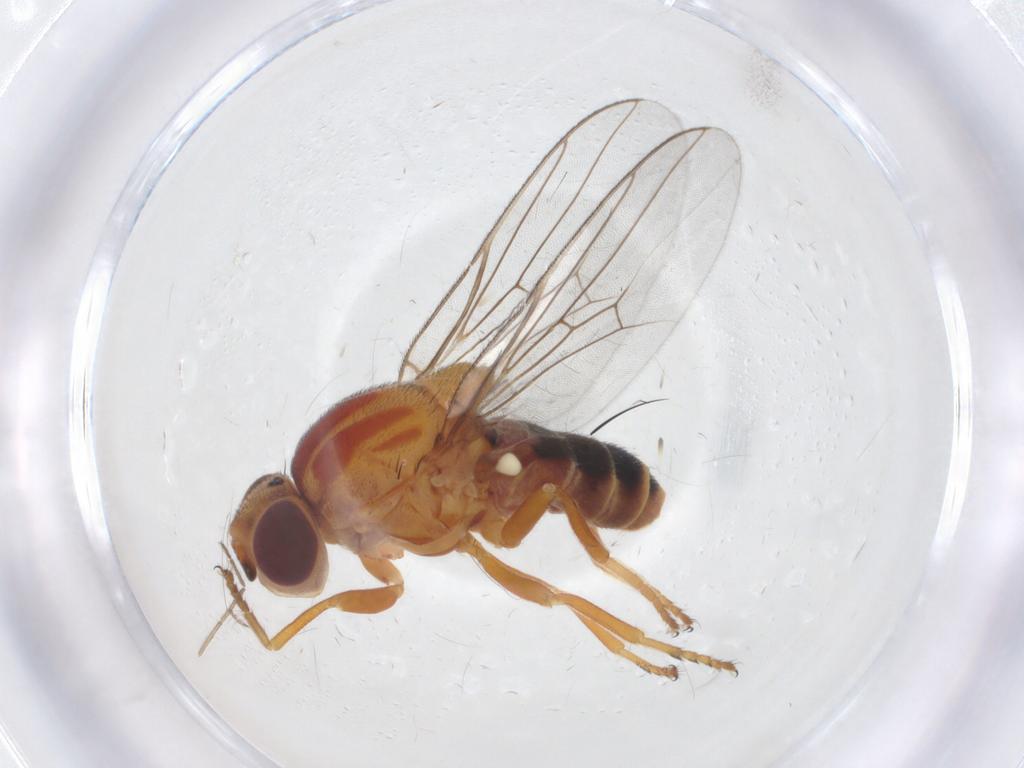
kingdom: Animalia
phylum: Arthropoda
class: Insecta
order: Diptera
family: Chloropidae
